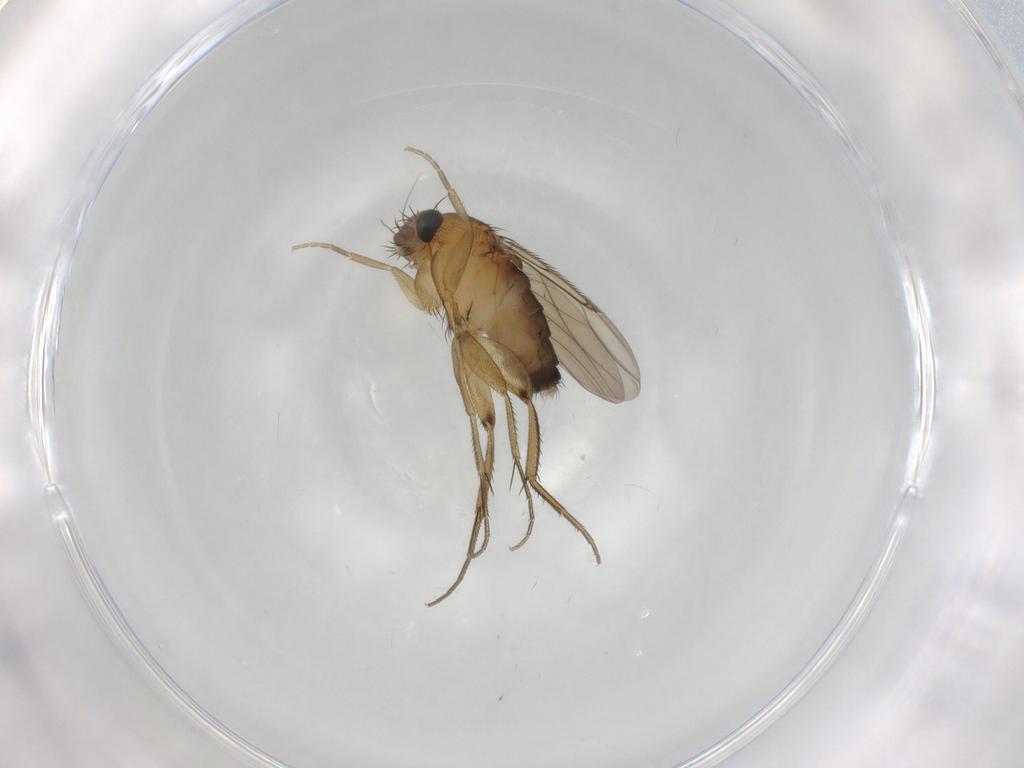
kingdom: Animalia
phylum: Arthropoda
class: Insecta
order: Diptera
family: Phoridae
